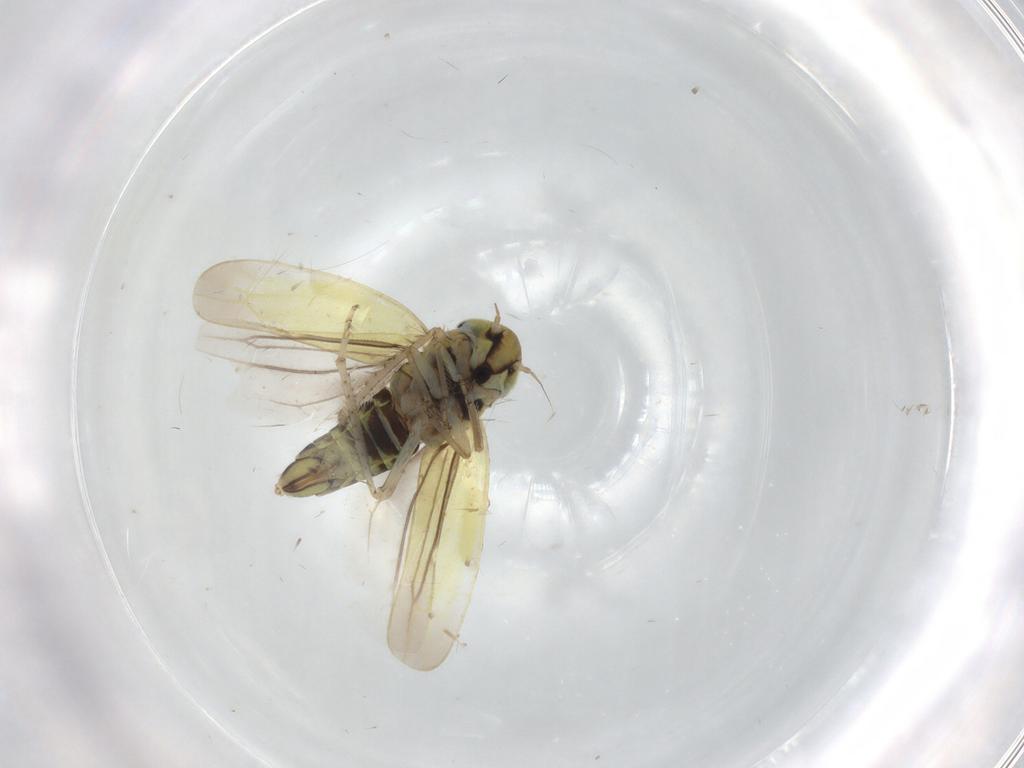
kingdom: Animalia
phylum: Arthropoda
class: Insecta
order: Hemiptera
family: Cicadellidae
